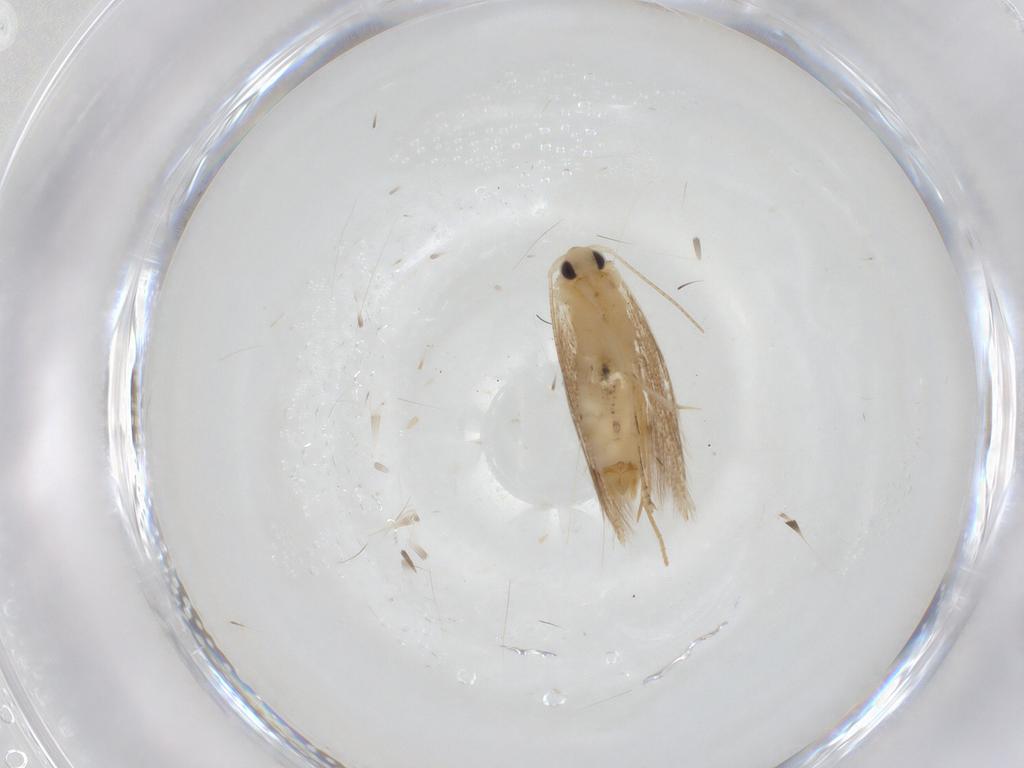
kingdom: Animalia
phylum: Arthropoda
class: Insecta
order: Lepidoptera
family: Bucculatricidae
